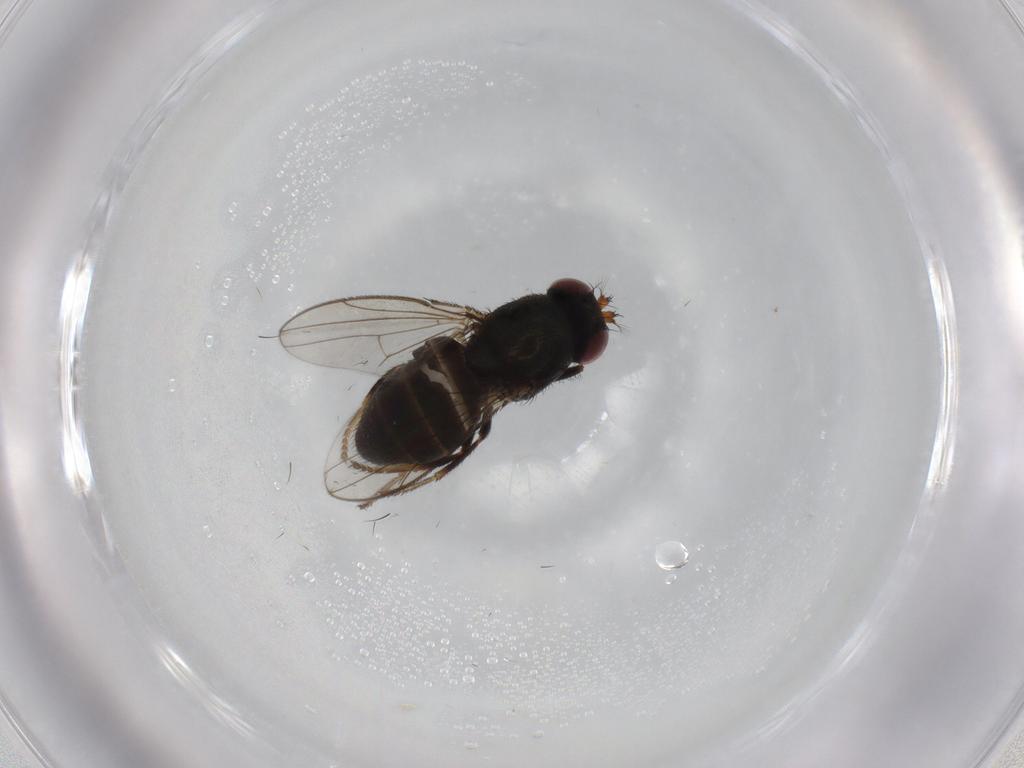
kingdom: Animalia
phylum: Arthropoda
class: Insecta
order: Diptera
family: Ephydridae
